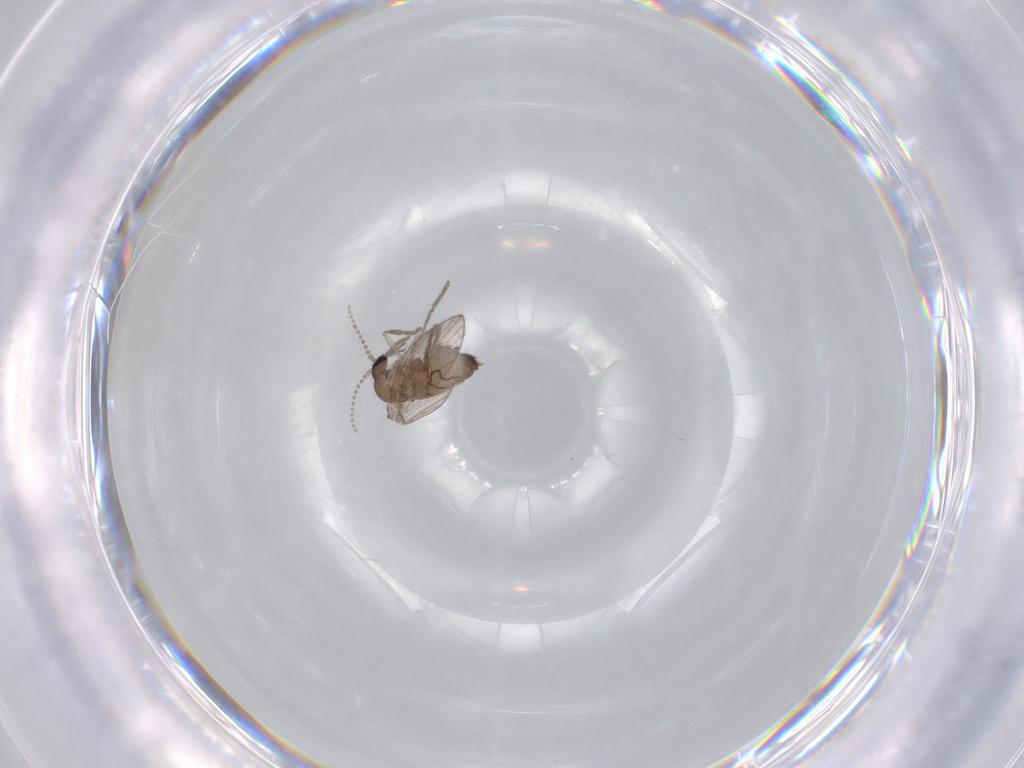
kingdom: Animalia
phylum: Arthropoda
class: Insecta
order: Diptera
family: Psychodidae
